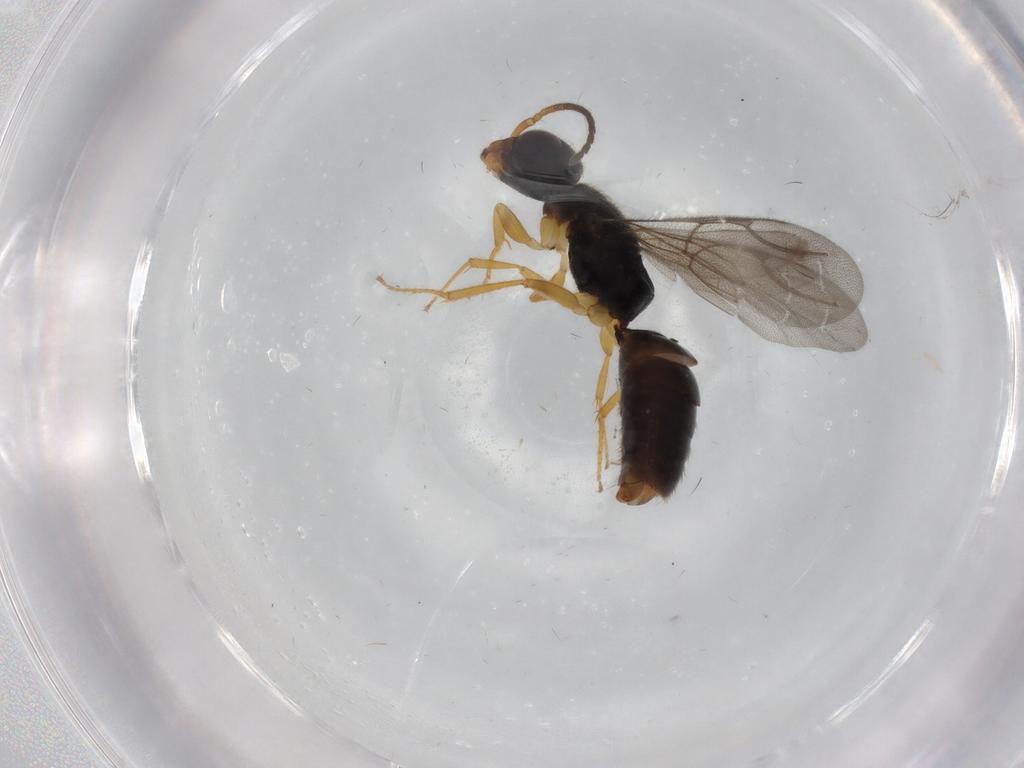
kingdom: Animalia
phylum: Arthropoda
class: Insecta
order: Hymenoptera
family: Bethylidae
